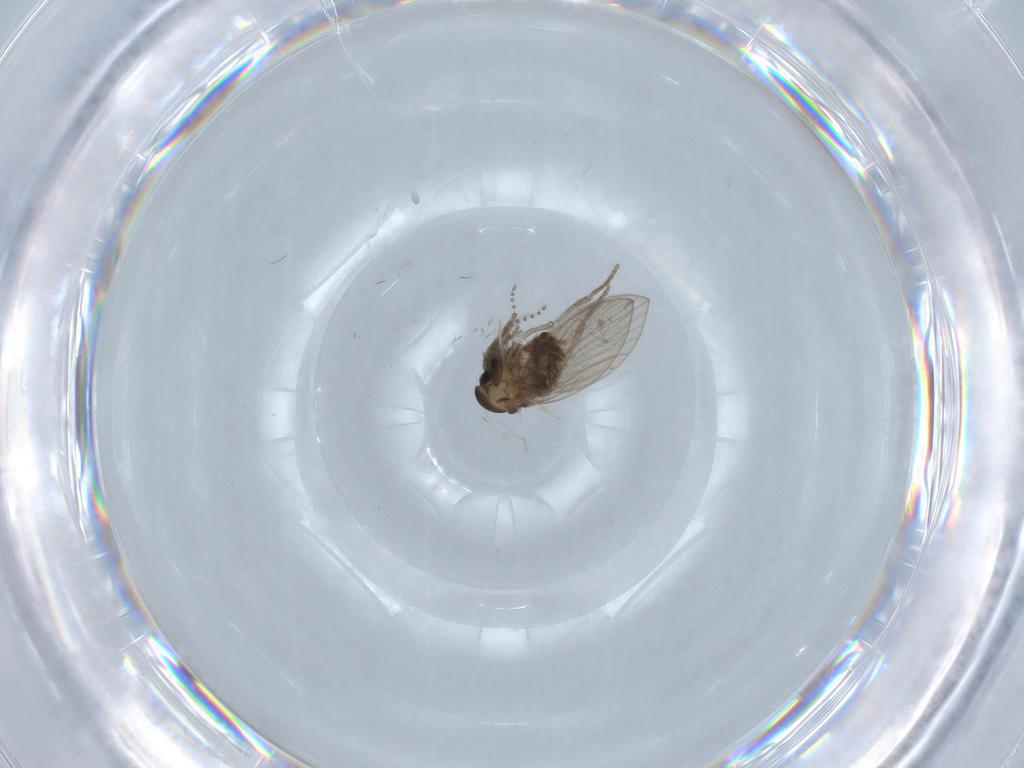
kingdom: Animalia
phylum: Arthropoda
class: Insecta
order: Diptera
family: Chironomidae
